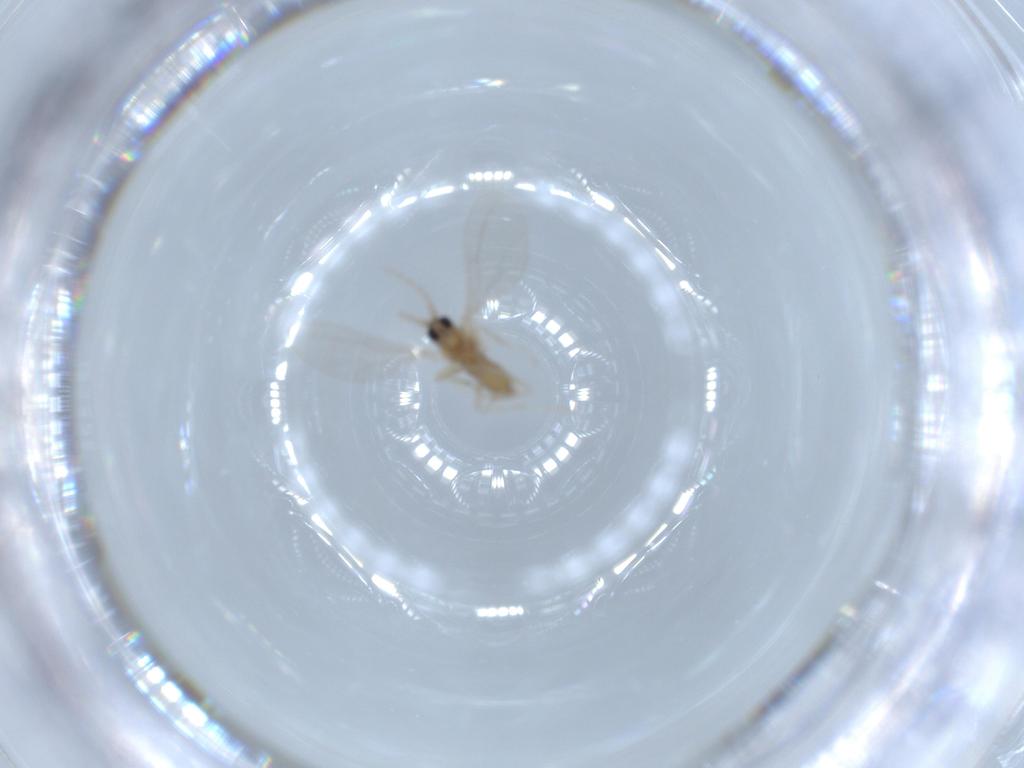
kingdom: Animalia
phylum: Arthropoda
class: Insecta
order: Diptera
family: Cecidomyiidae
